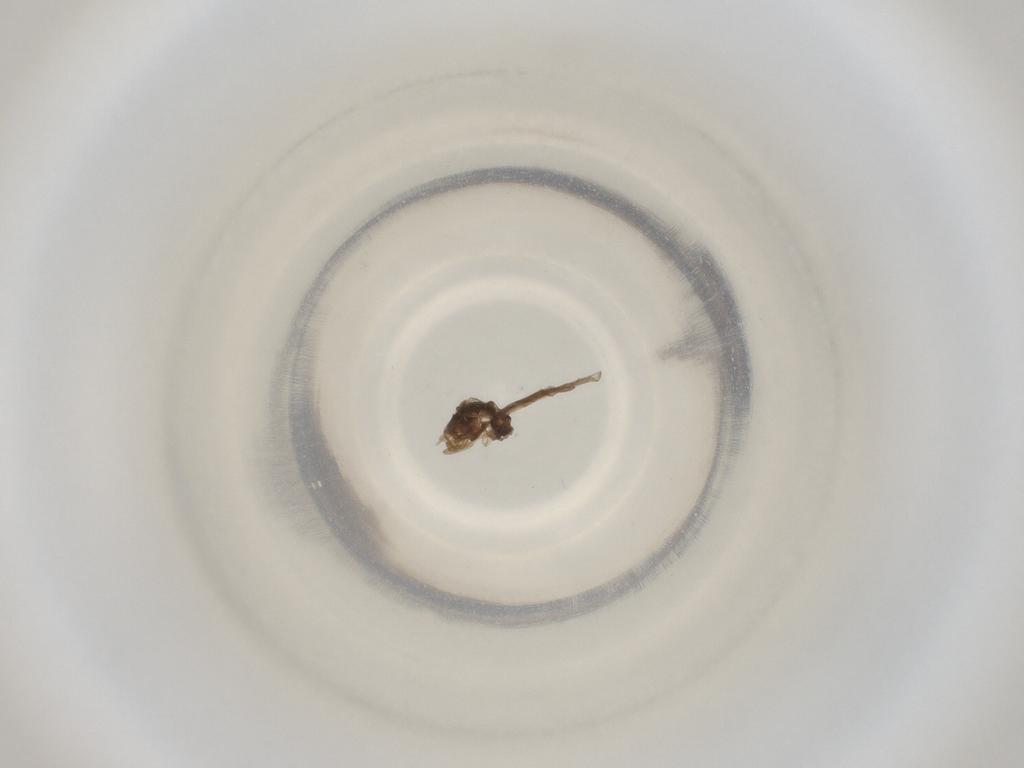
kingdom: Animalia
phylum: Arthropoda
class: Insecta
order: Diptera
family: Cecidomyiidae
